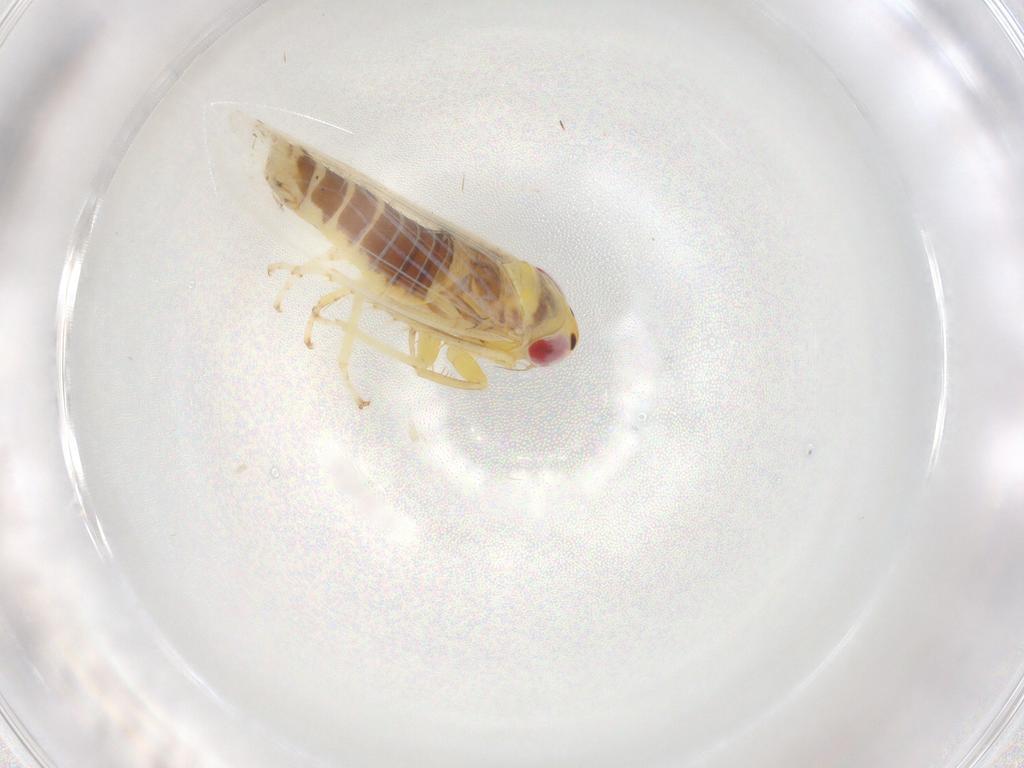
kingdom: Animalia
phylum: Arthropoda
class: Insecta
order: Hemiptera
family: Cicadellidae
